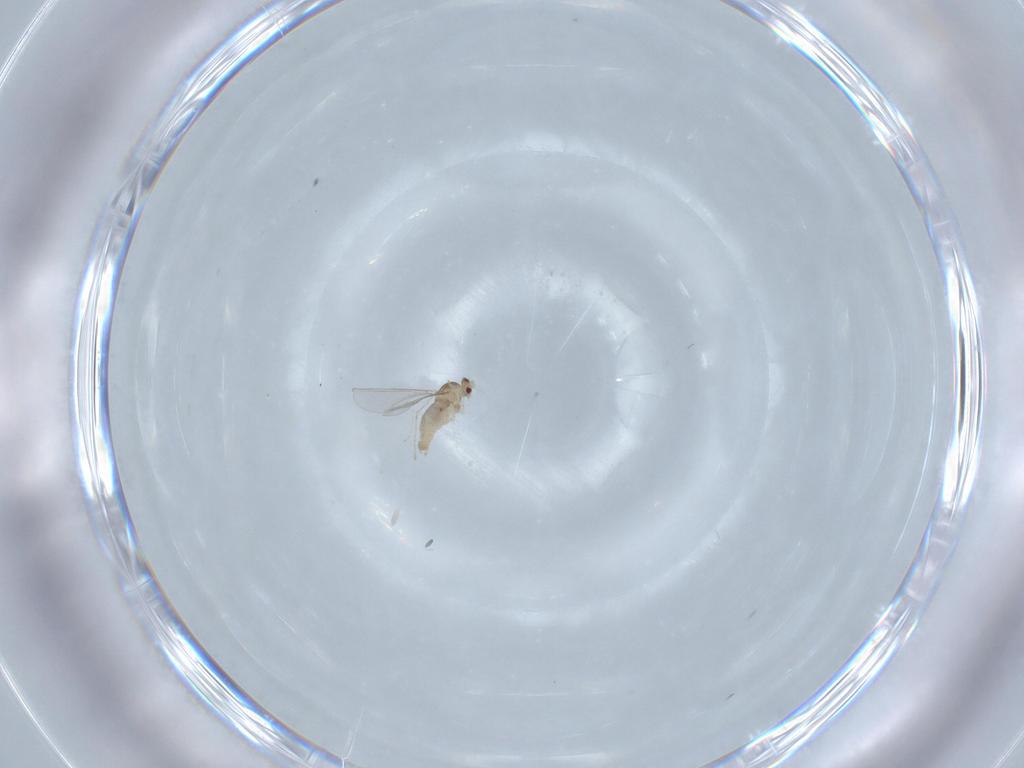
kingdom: Animalia
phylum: Arthropoda
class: Insecta
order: Diptera
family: Cecidomyiidae
